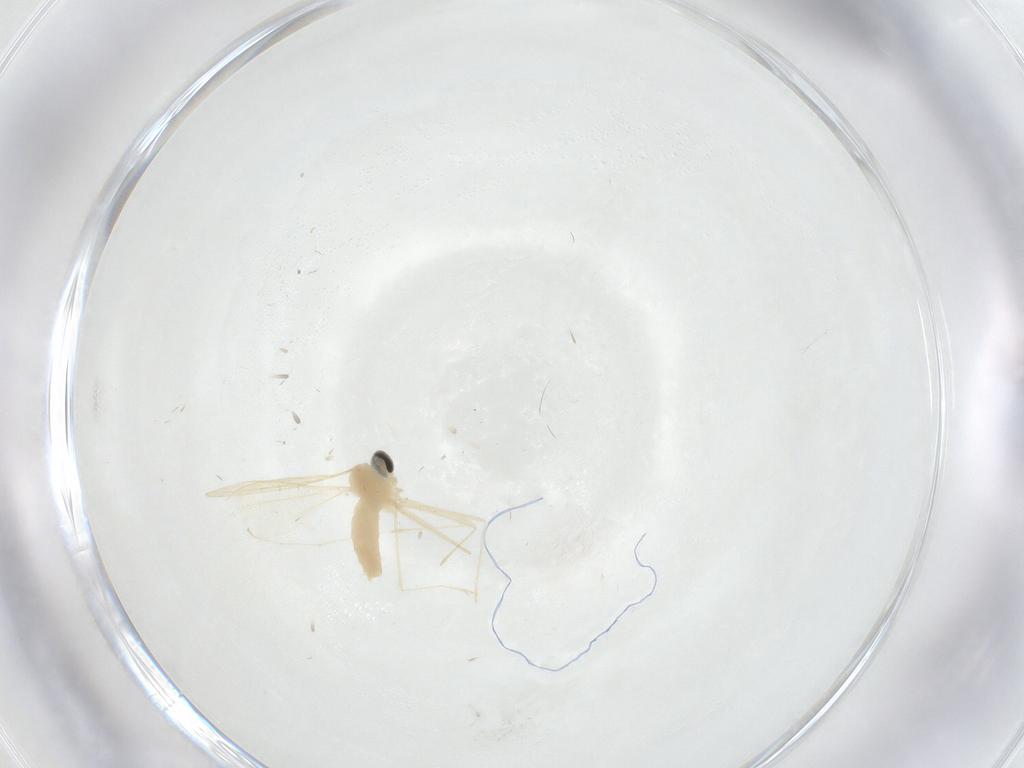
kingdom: Animalia
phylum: Arthropoda
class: Insecta
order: Diptera
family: Cecidomyiidae
